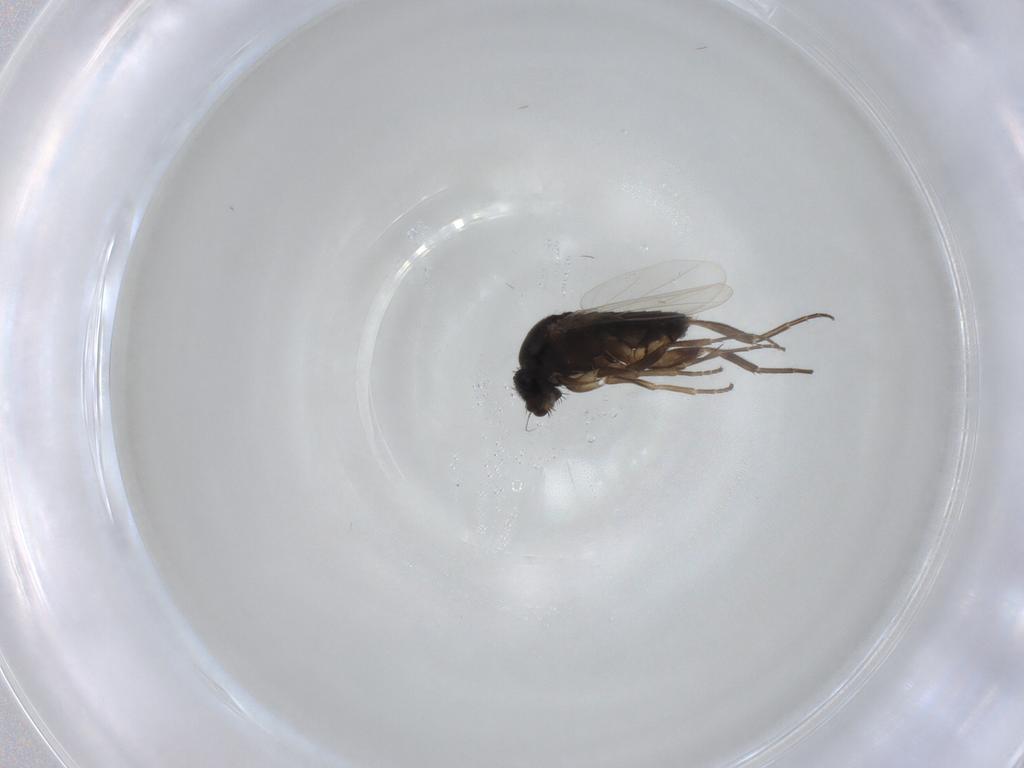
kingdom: Animalia
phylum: Arthropoda
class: Insecta
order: Diptera
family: Phoridae
